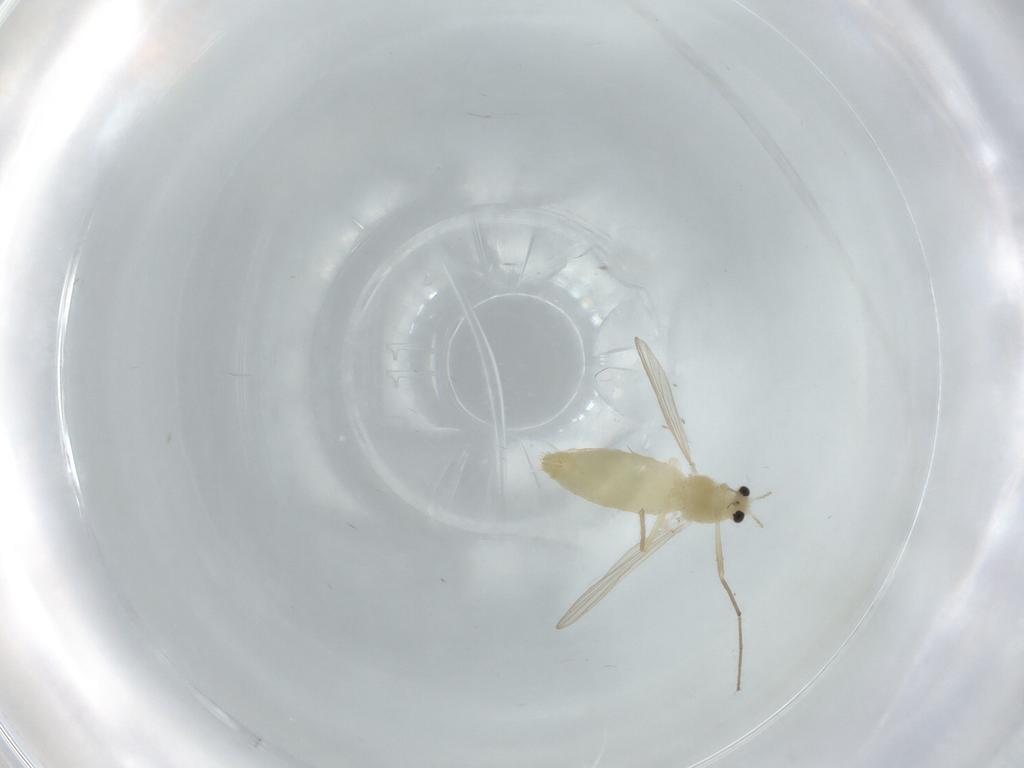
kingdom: Animalia
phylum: Arthropoda
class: Insecta
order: Diptera
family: Chironomidae
